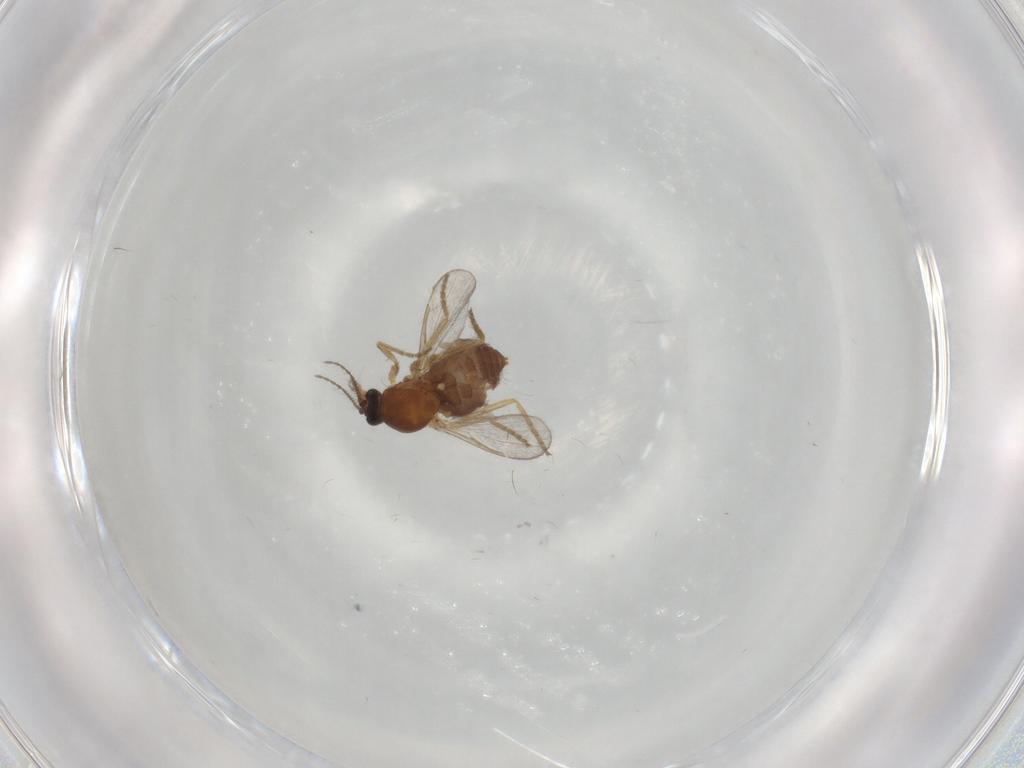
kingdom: Animalia
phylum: Arthropoda
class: Insecta
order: Diptera
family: Ceratopogonidae
